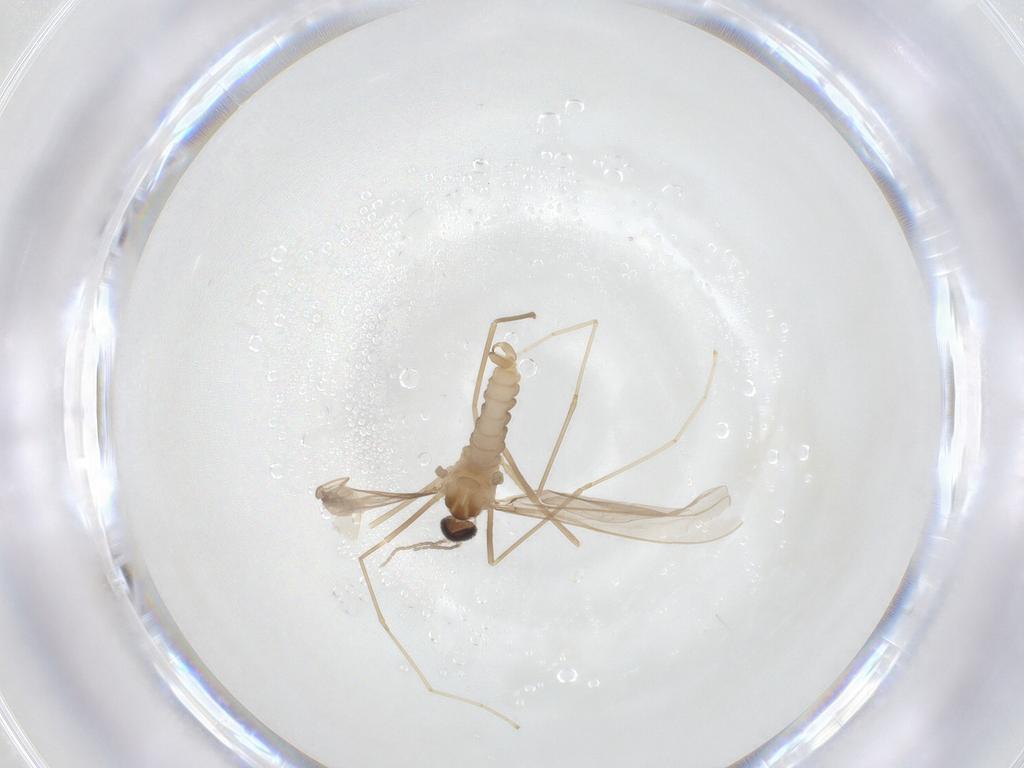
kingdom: Animalia
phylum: Arthropoda
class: Insecta
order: Diptera
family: Cecidomyiidae
